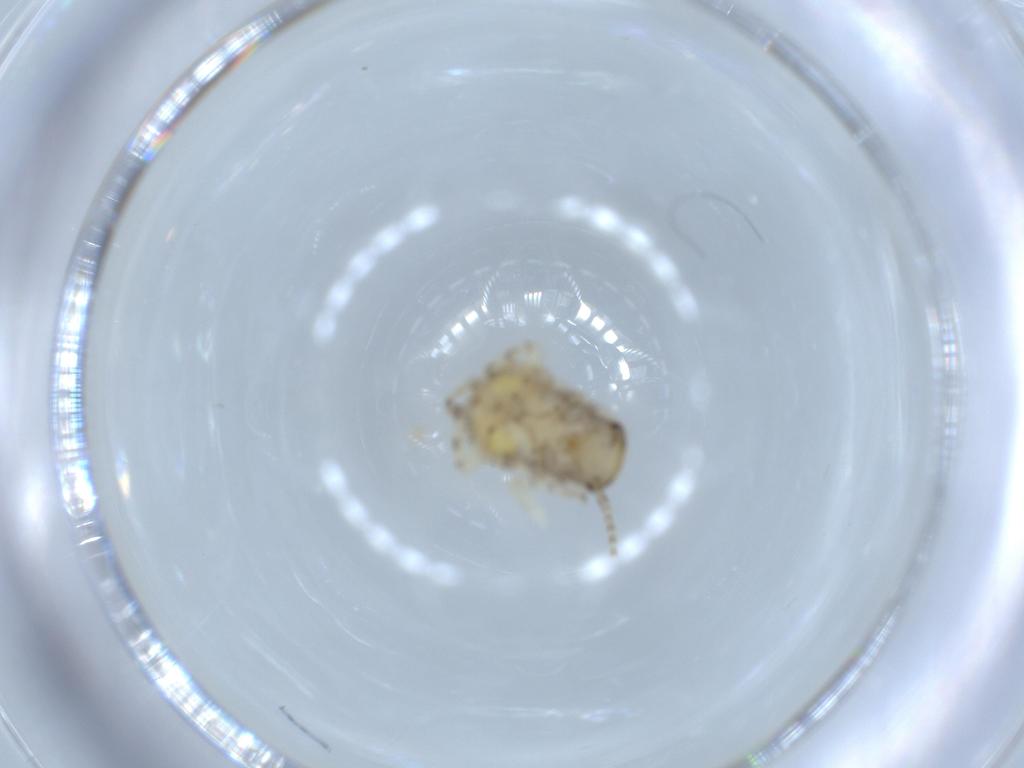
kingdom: Animalia
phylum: Arthropoda
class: Insecta
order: Blattodea
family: Ectobiidae
